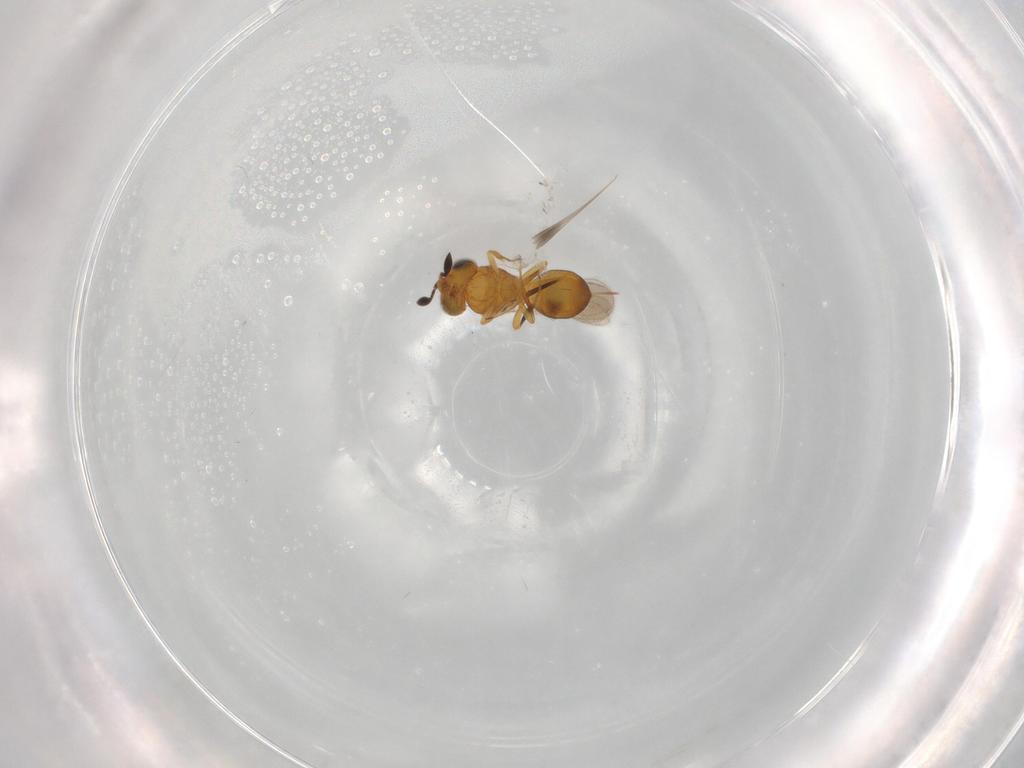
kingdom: Animalia
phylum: Arthropoda
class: Insecta
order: Hymenoptera
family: Scelionidae
